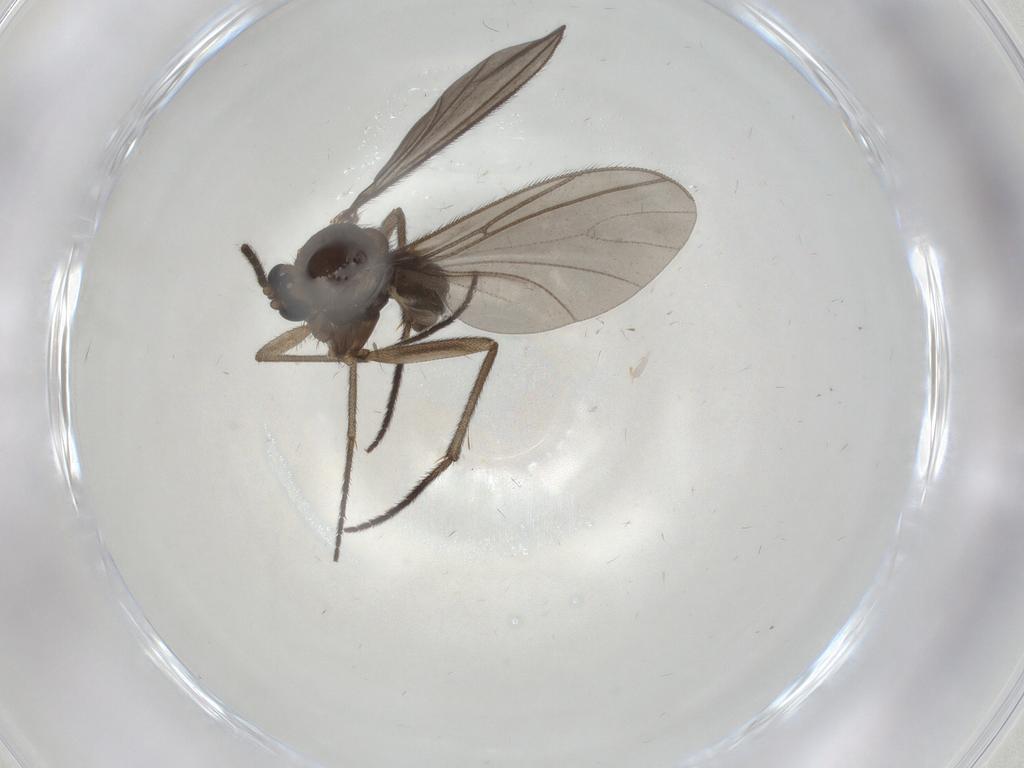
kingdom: Animalia
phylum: Arthropoda
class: Insecta
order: Diptera
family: Sciaridae
